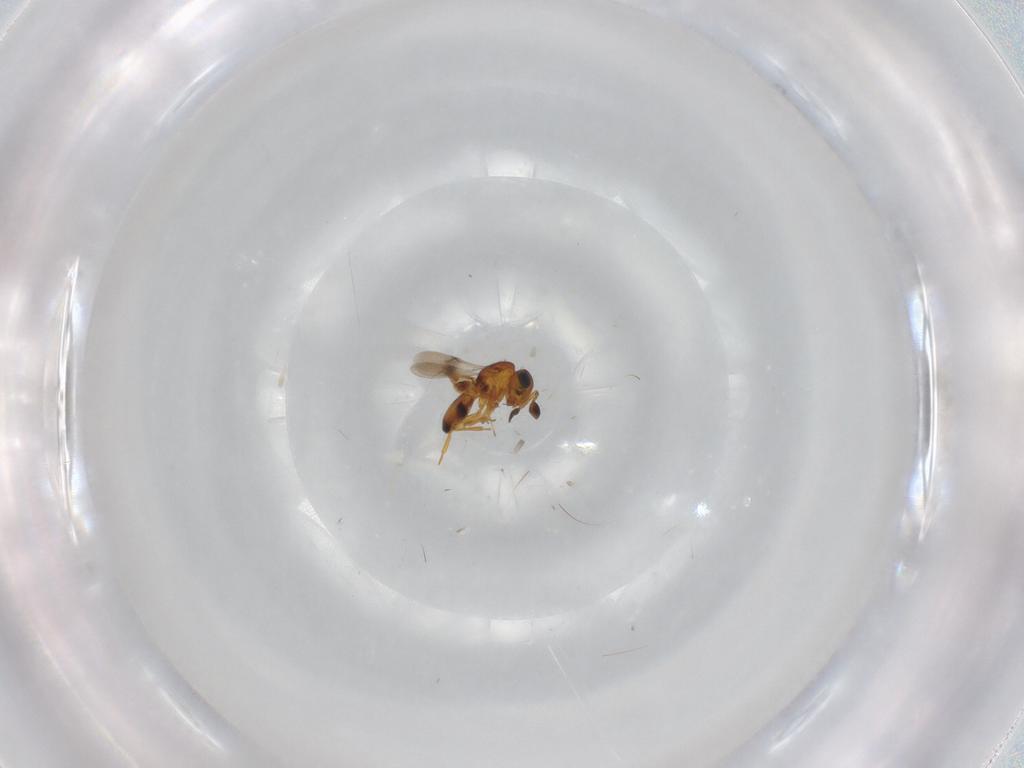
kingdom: Animalia
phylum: Arthropoda
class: Insecta
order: Hymenoptera
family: Scelionidae
